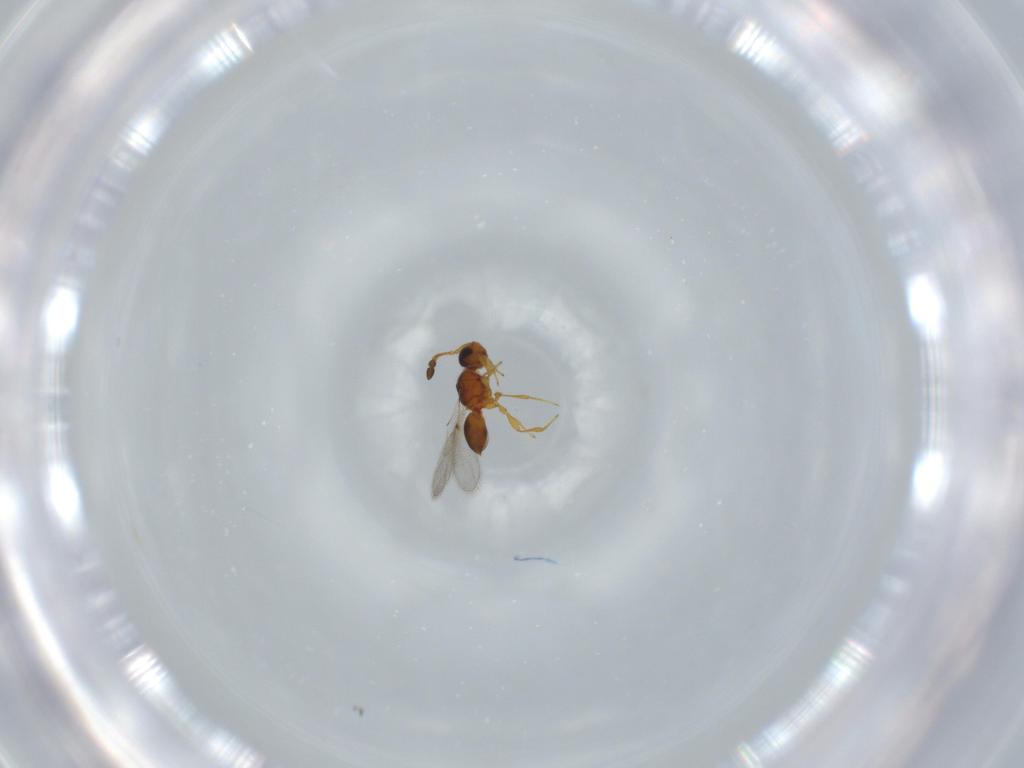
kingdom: Animalia
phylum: Arthropoda
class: Insecta
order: Hymenoptera
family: Diapriidae
